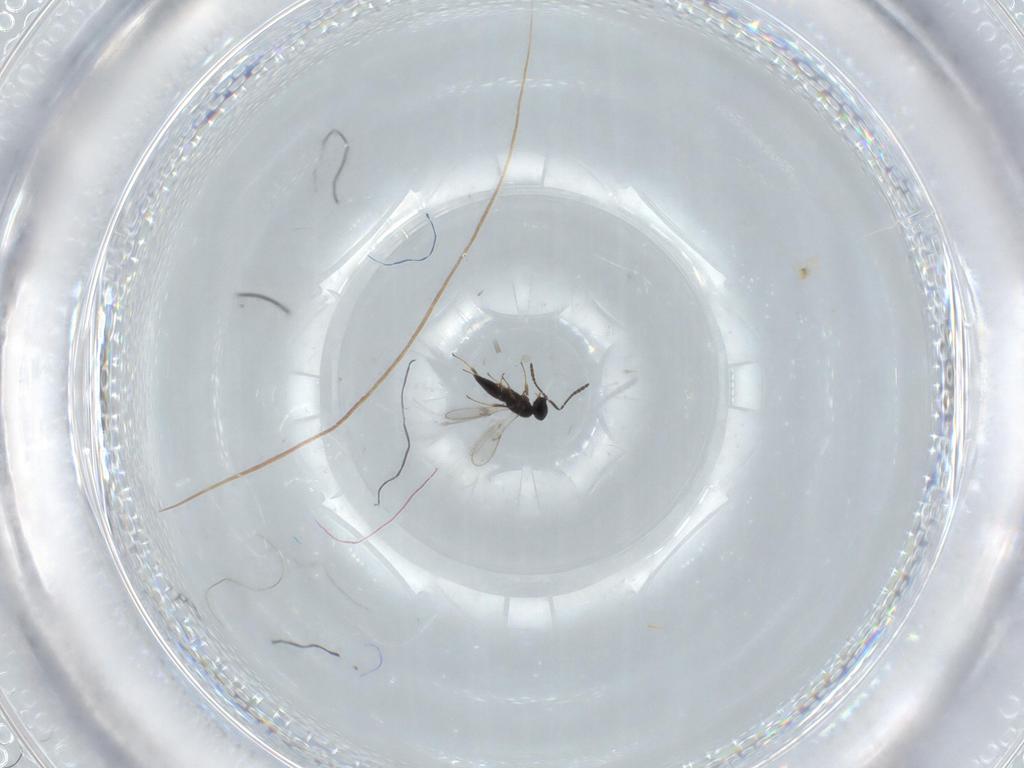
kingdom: Animalia
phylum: Arthropoda
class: Insecta
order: Hymenoptera
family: Scelionidae
